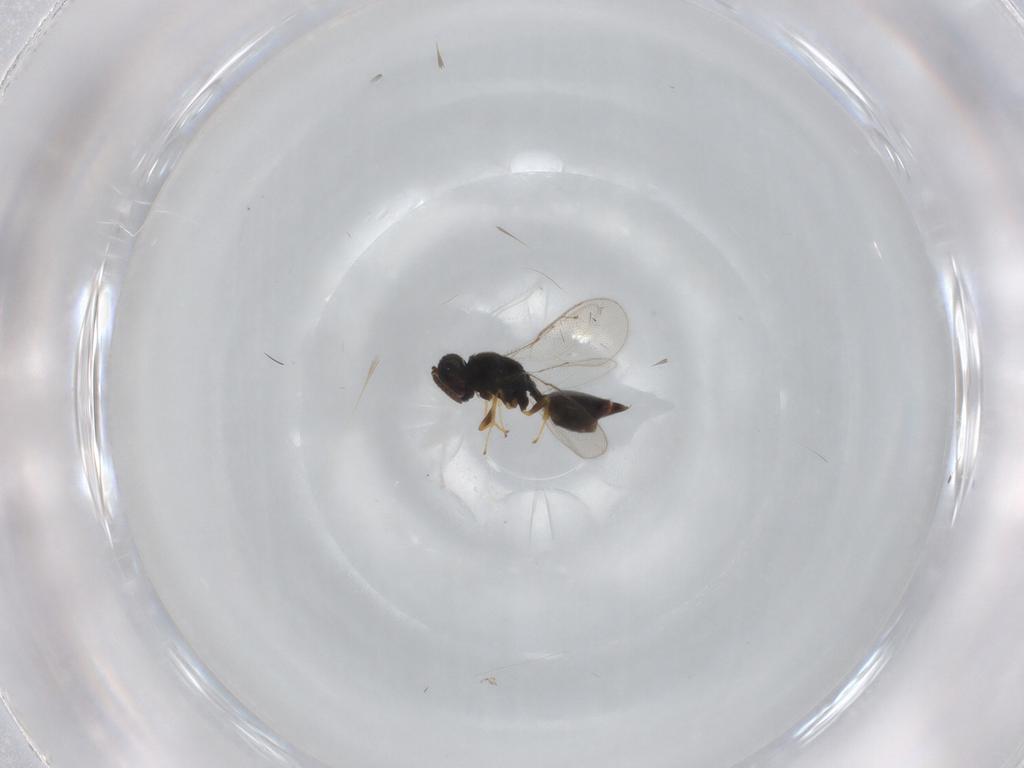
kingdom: Animalia
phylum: Arthropoda
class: Insecta
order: Hymenoptera
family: Pteromalidae
